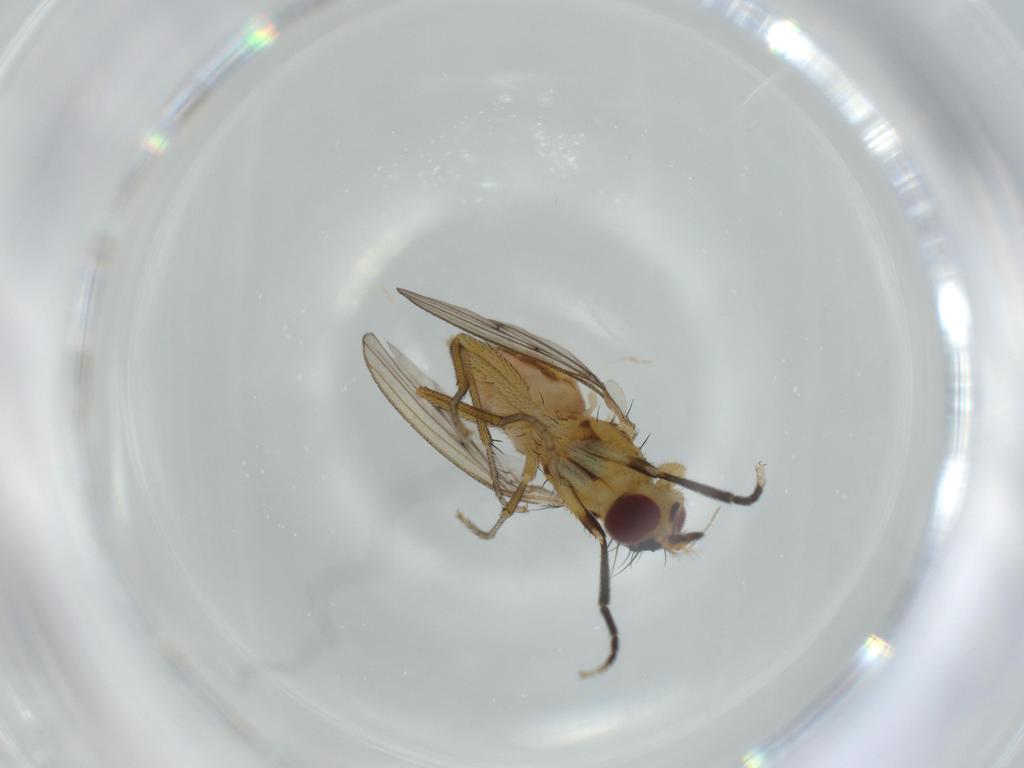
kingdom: Animalia
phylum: Arthropoda
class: Insecta
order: Diptera
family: Cecidomyiidae
